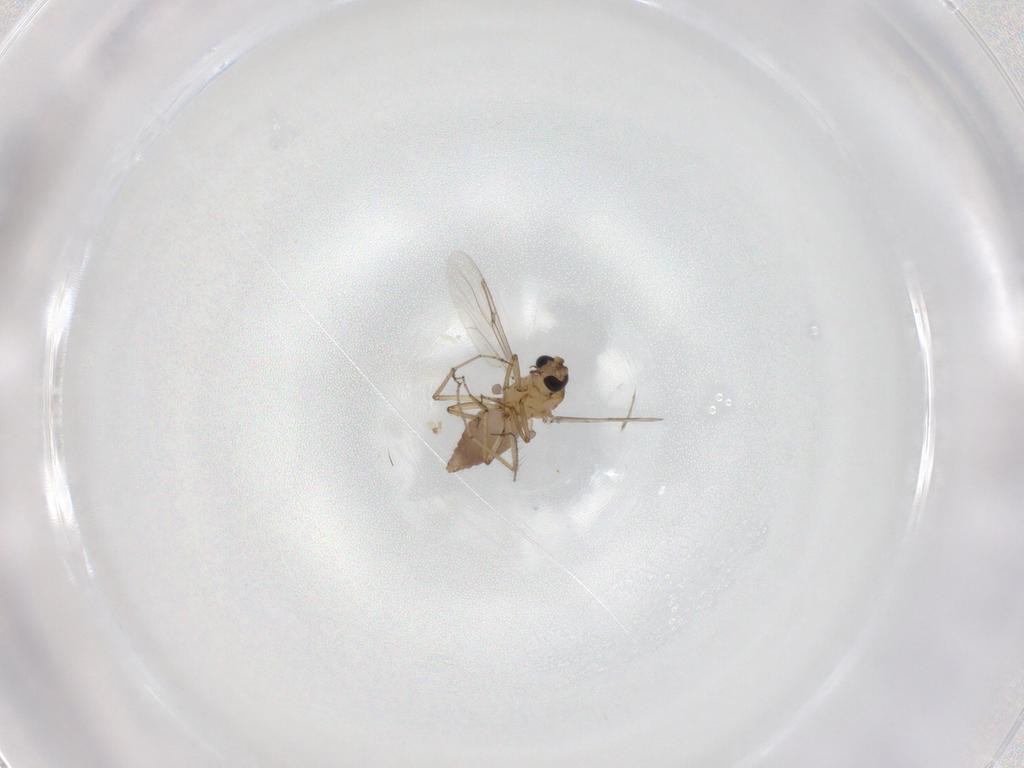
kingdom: Animalia
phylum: Arthropoda
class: Insecta
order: Diptera
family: Ceratopogonidae
